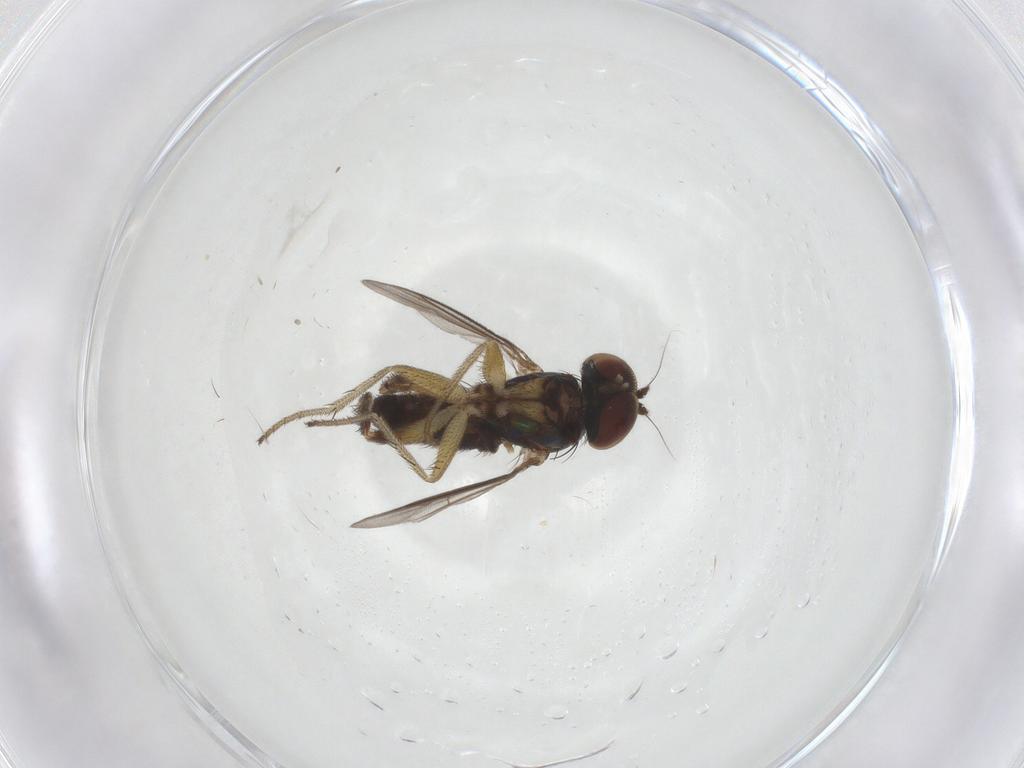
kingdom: Animalia
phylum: Arthropoda
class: Insecta
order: Diptera
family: Dolichopodidae
